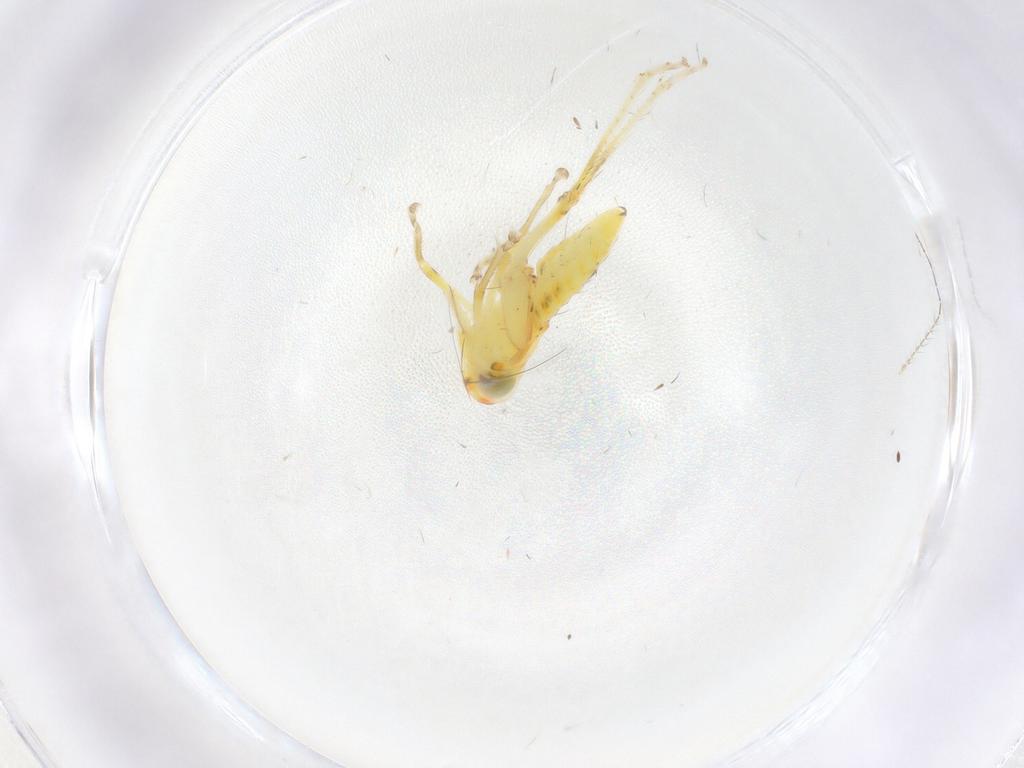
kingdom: Animalia
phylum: Arthropoda
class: Insecta
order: Hemiptera
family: Cicadellidae
